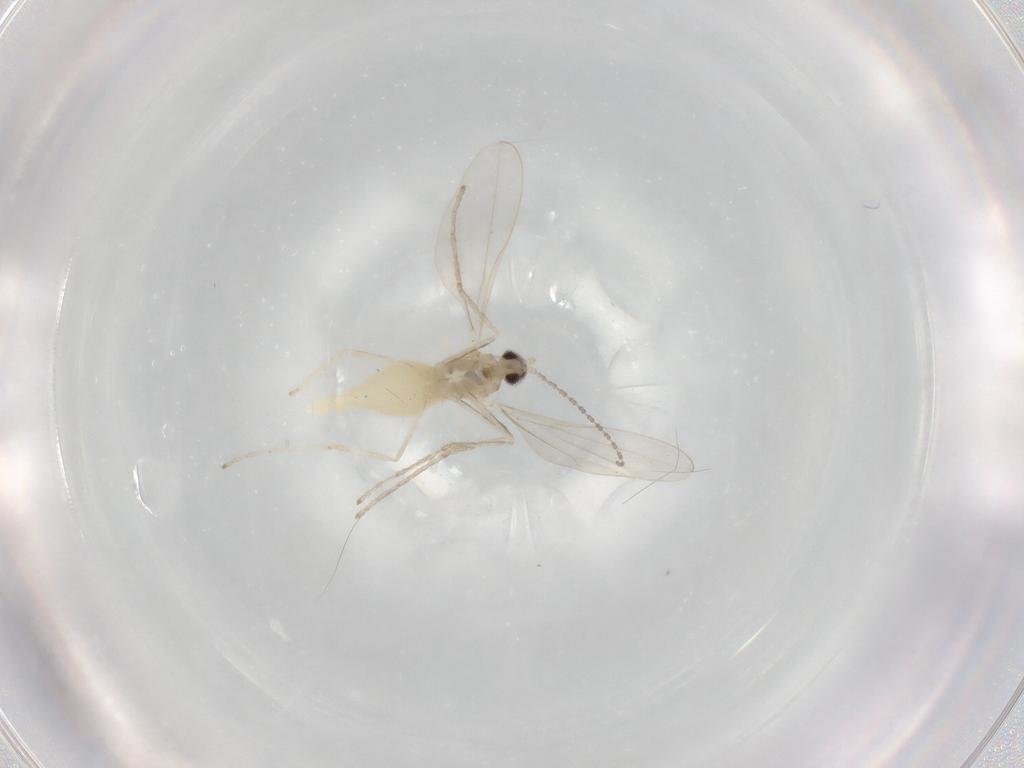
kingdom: Animalia
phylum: Arthropoda
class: Insecta
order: Diptera
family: Cecidomyiidae
